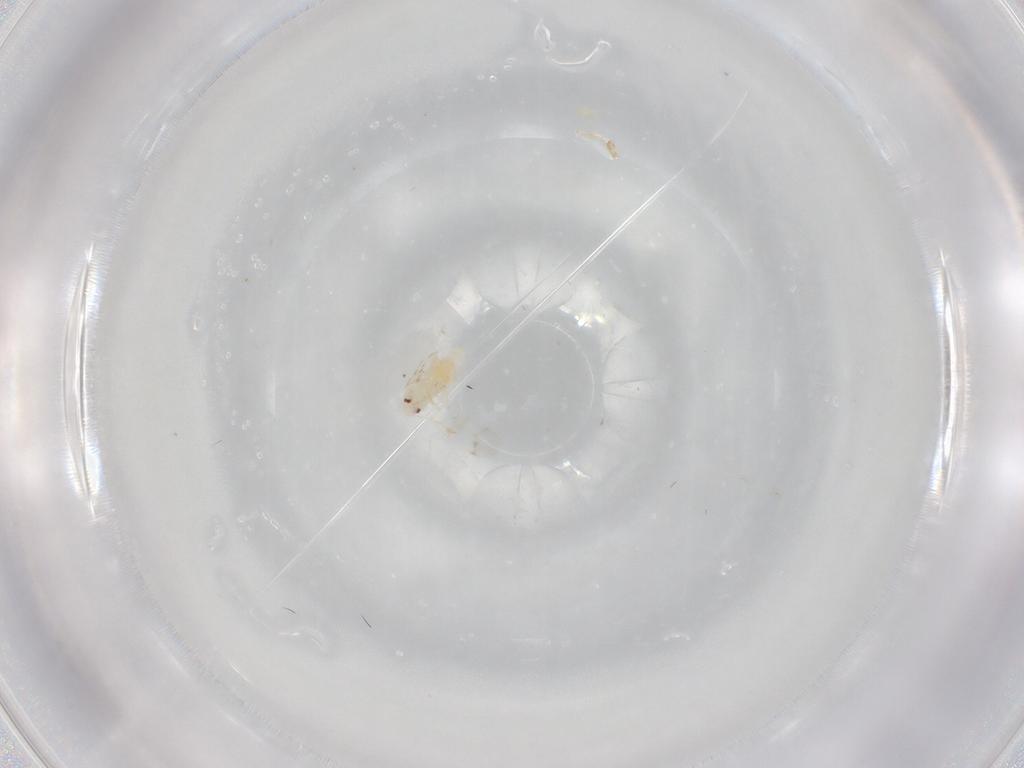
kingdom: Animalia
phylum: Arthropoda
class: Insecta
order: Hemiptera
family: Aleyrodidae
